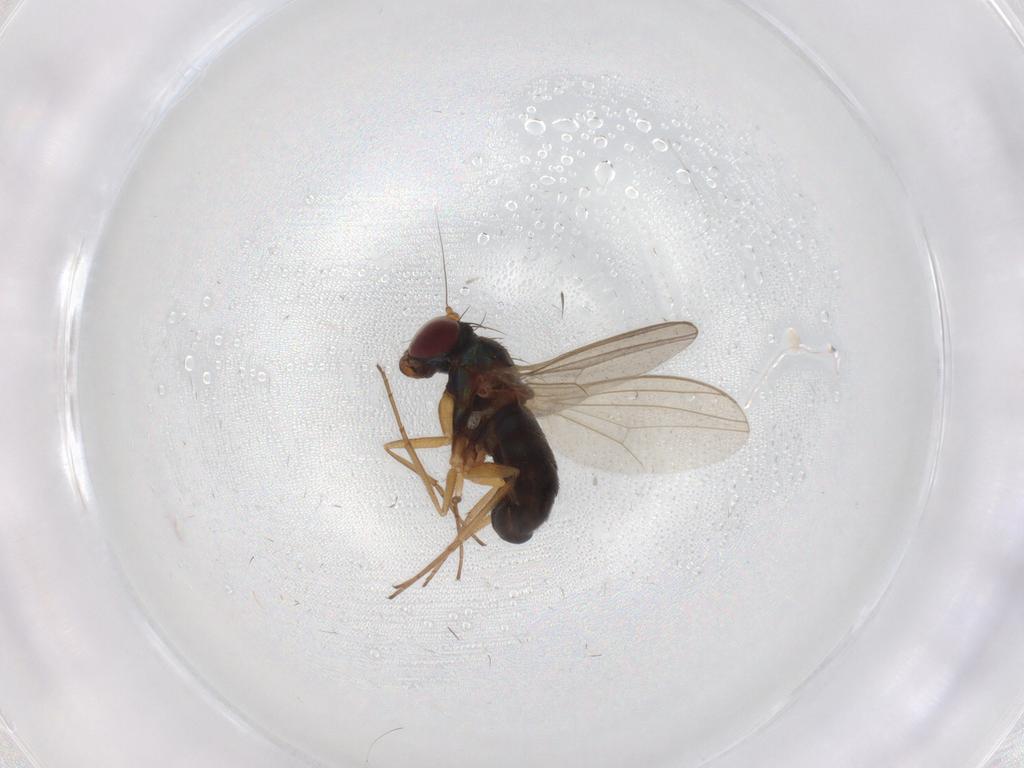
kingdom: Animalia
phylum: Arthropoda
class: Insecta
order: Diptera
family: Dolichopodidae
